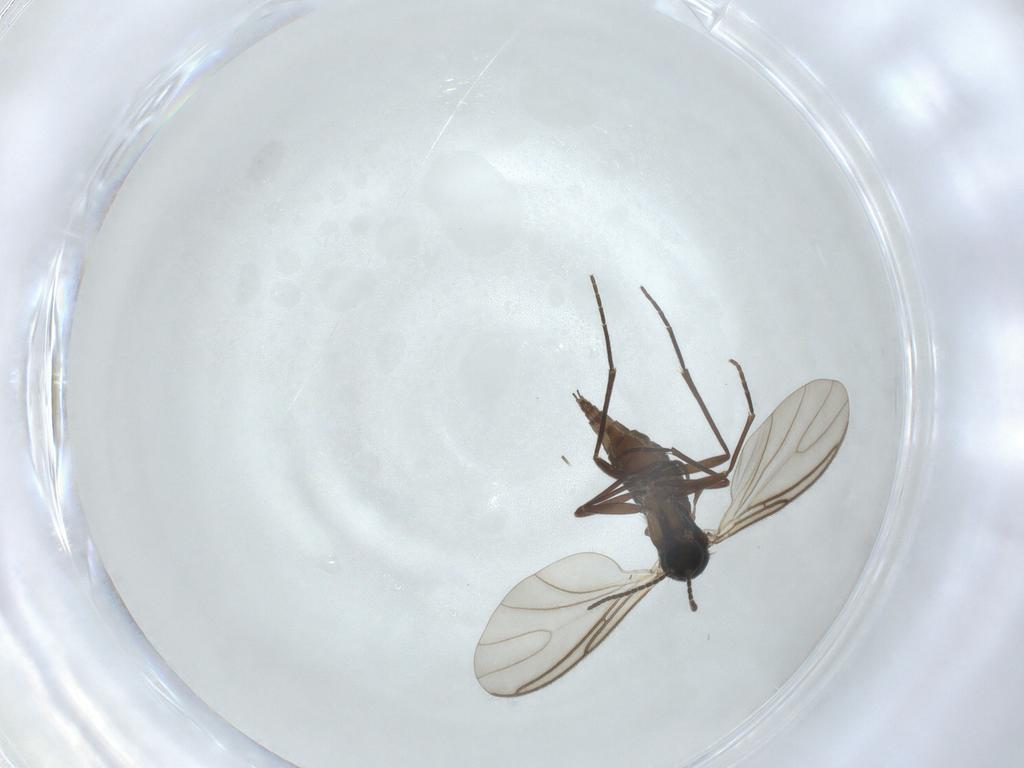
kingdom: Animalia
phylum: Arthropoda
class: Insecta
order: Diptera
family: Sciaridae
